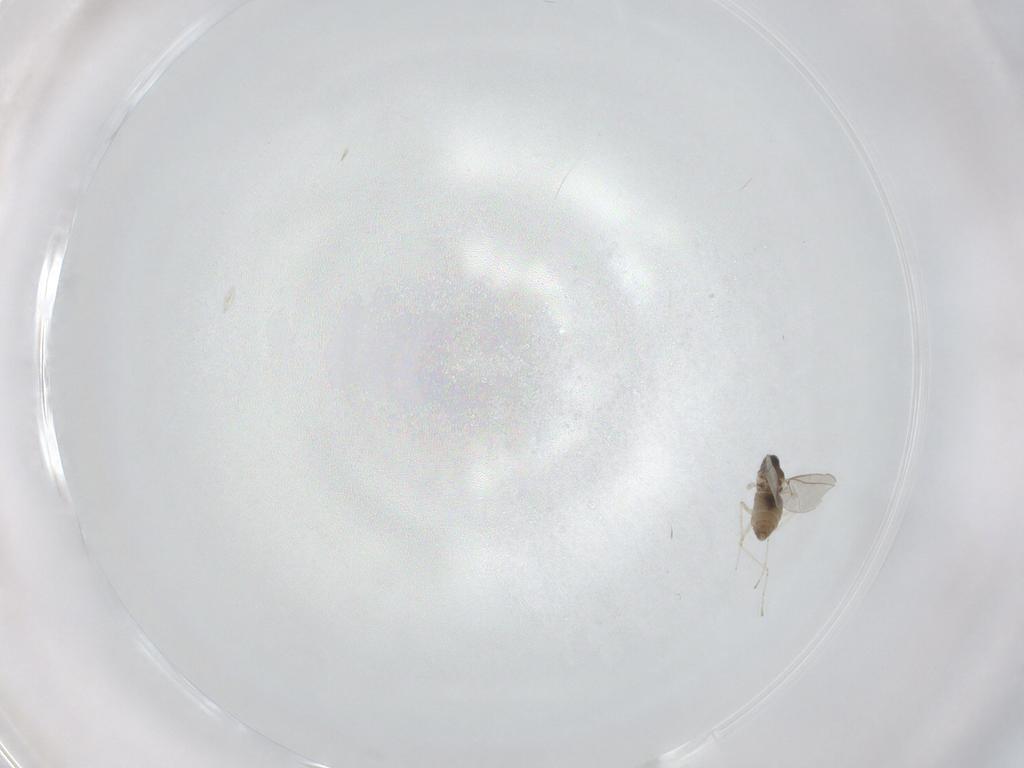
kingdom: Animalia
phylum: Arthropoda
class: Insecta
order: Diptera
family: Cecidomyiidae
